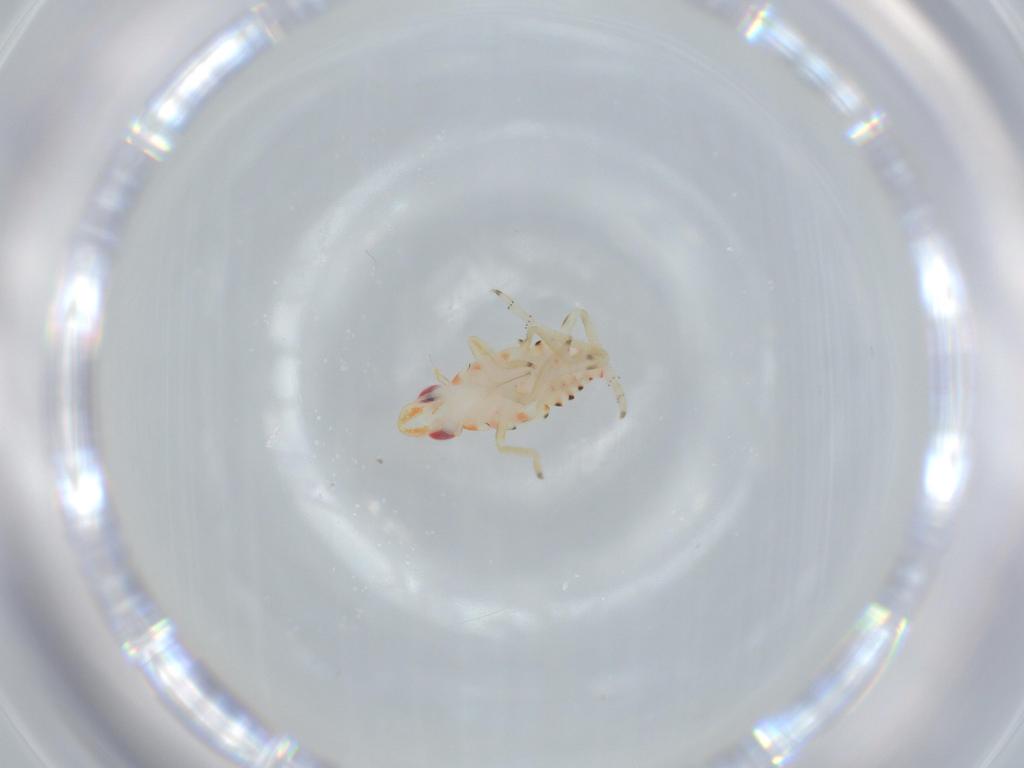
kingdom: Animalia
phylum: Arthropoda
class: Insecta
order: Hemiptera
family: Tropiduchidae
